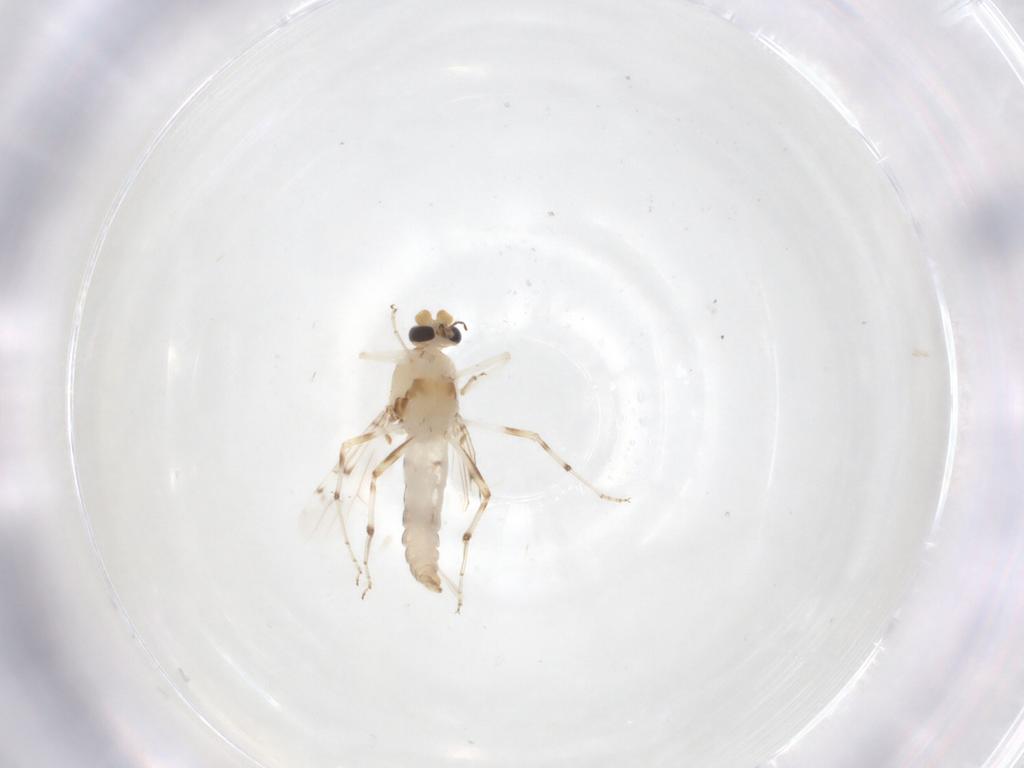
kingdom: Animalia
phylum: Arthropoda
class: Insecta
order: Diptera
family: Ceratopogonidae
